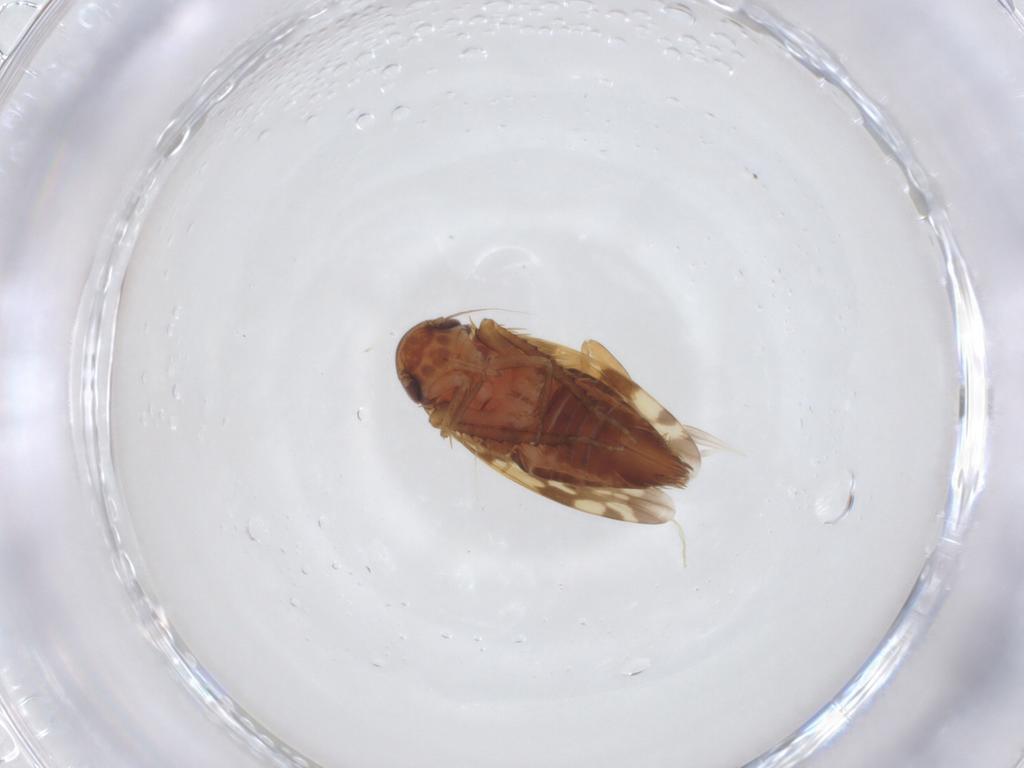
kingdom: Animalia
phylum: Arthropoda
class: Insecta
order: Hemiptera
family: Cicadellidae
